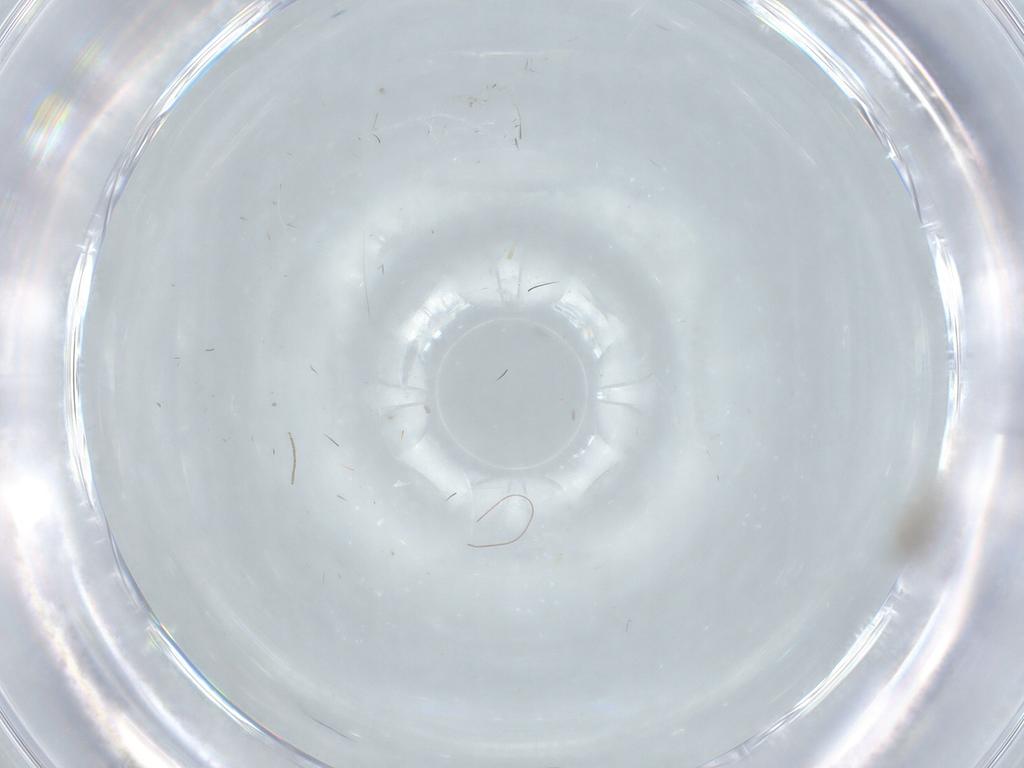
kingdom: Animalia
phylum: Arthropoda
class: Insecta
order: Diptera
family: Chironomidae
